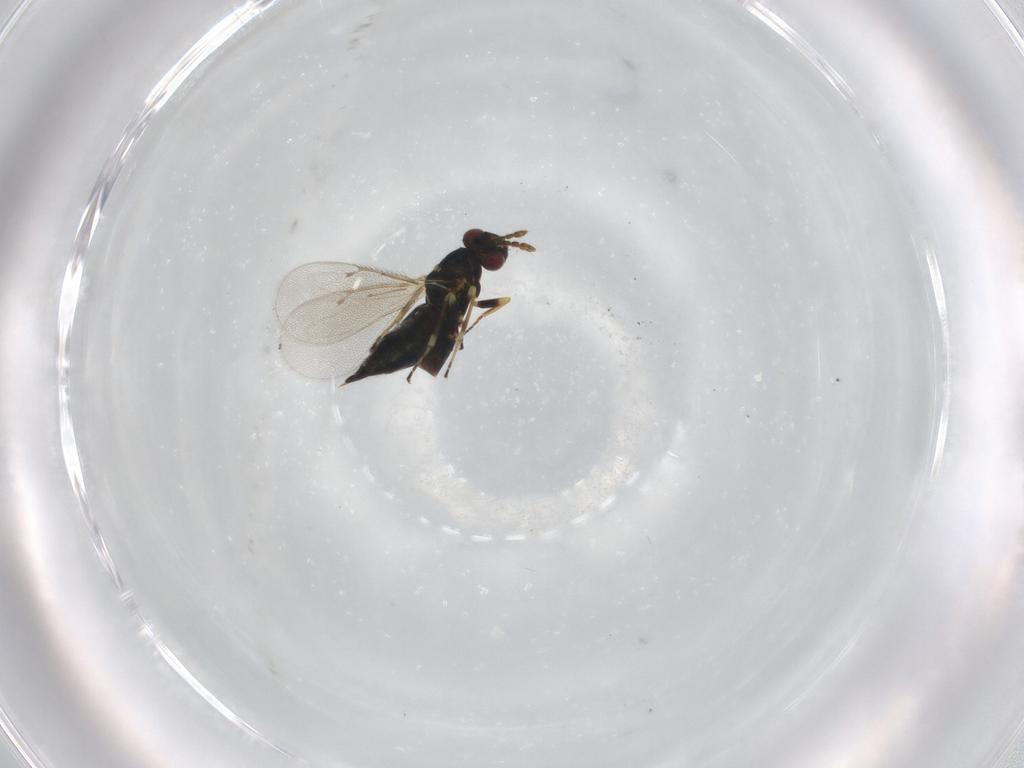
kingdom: Animalia
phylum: Arthropoda
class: Insecta
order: Hymenoptera
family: Eulophidae
